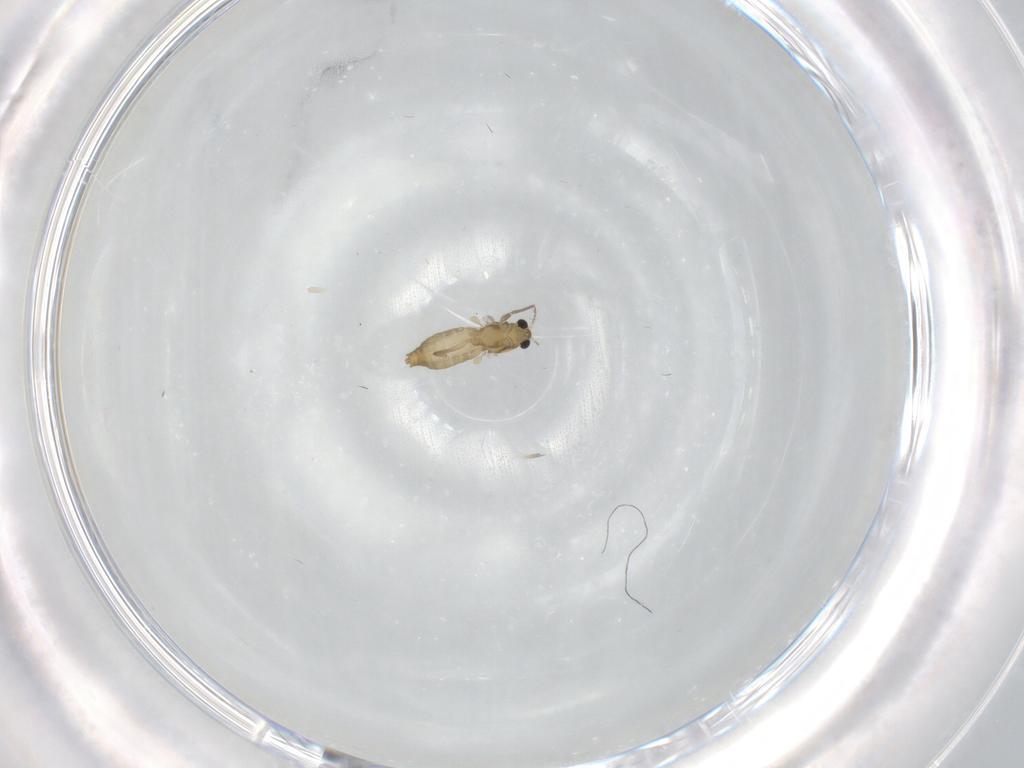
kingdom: Animalia
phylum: Arthropoda
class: Insecta
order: Diptera
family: Chironomidae
